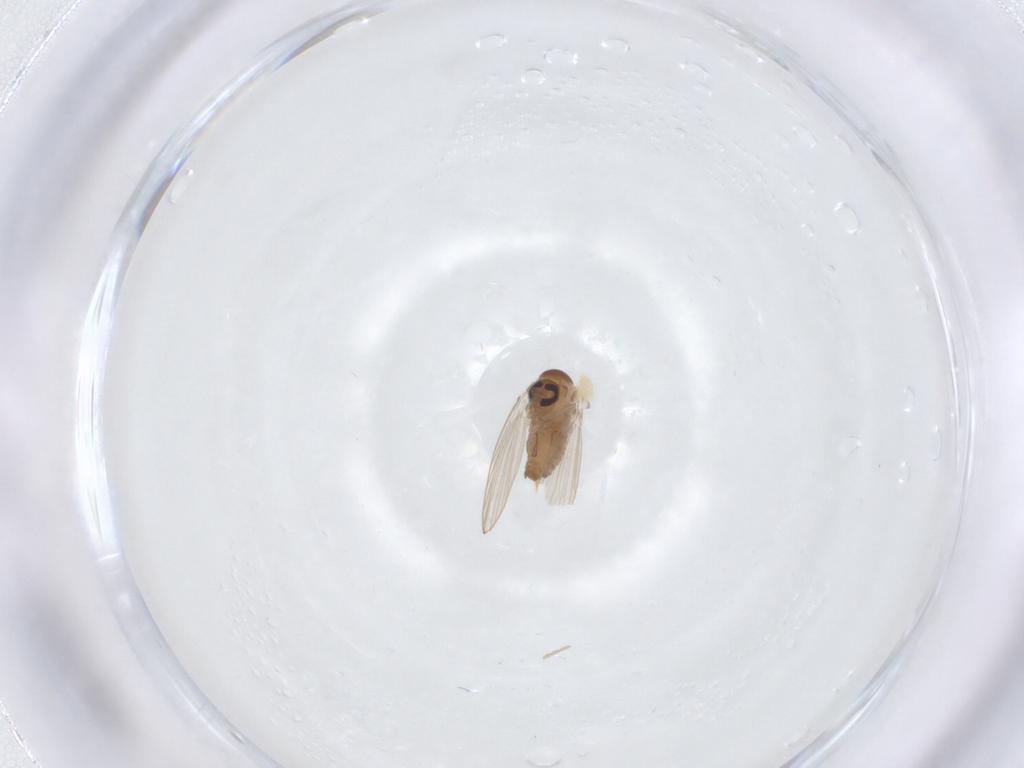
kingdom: Animalia
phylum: Arthropoda
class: Insecta
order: Diptera
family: Psychodidae
